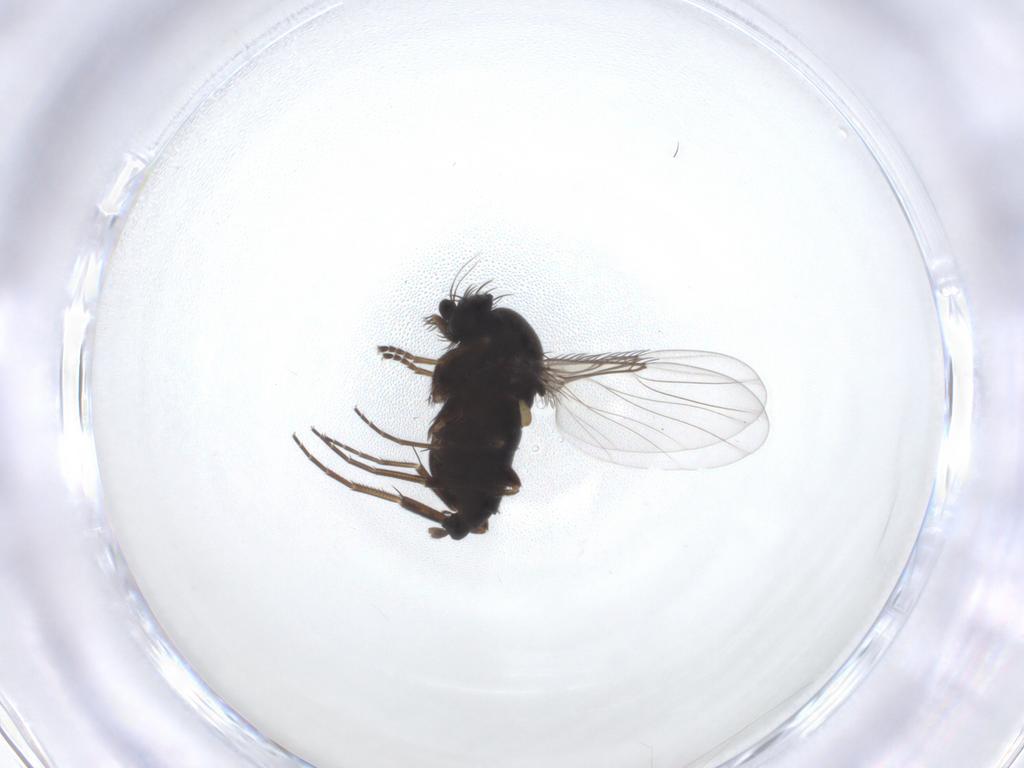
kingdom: Animalia
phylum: Arthropoda
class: Insecta
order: Diptera
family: Phoridae
